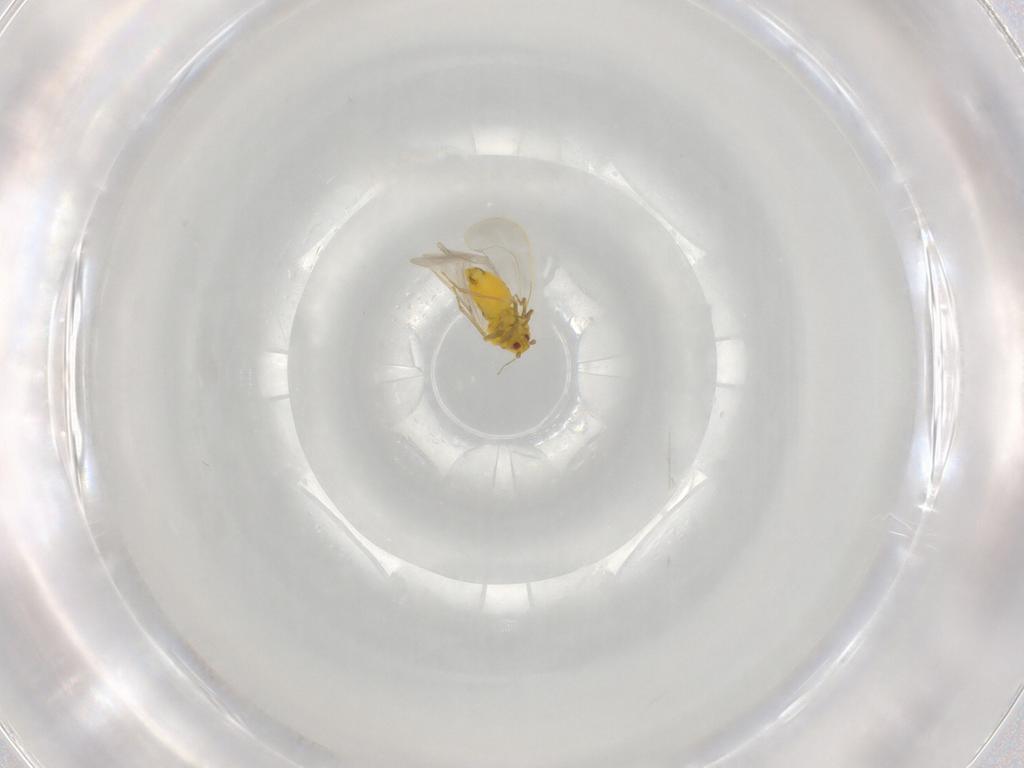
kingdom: Animalia
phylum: Arthropoda
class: Insecta
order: Hemiptera
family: Aleyrodidae
